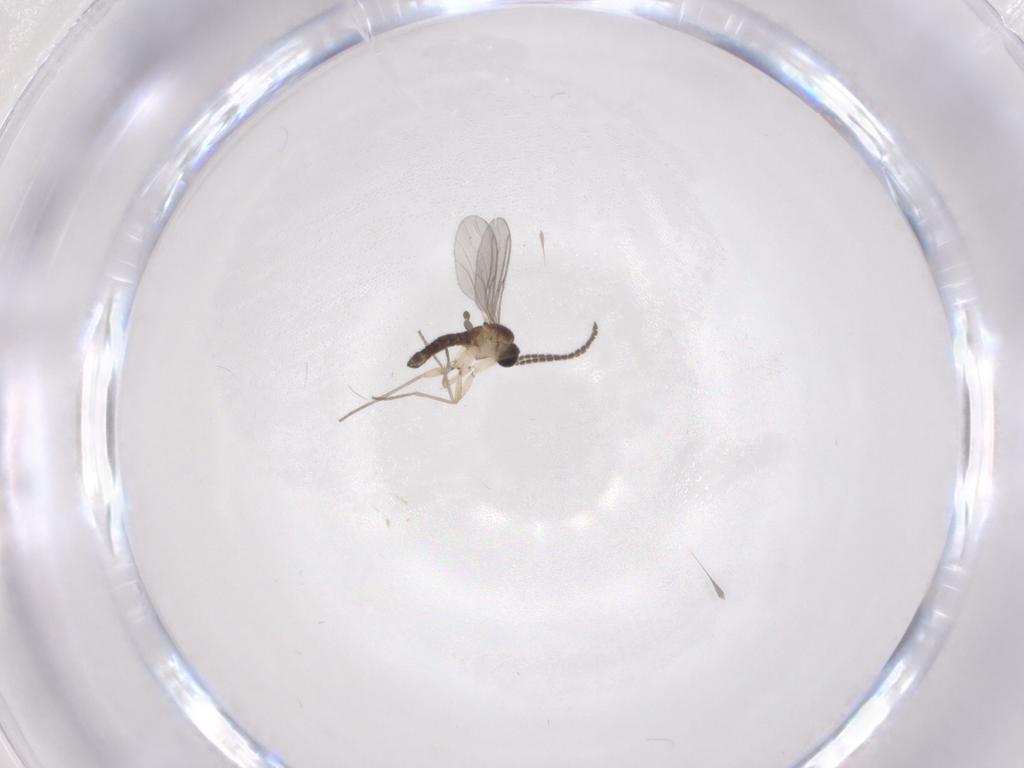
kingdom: Animalia
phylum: Arthropoda
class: Insecta
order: Diptera
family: Sciaridae
